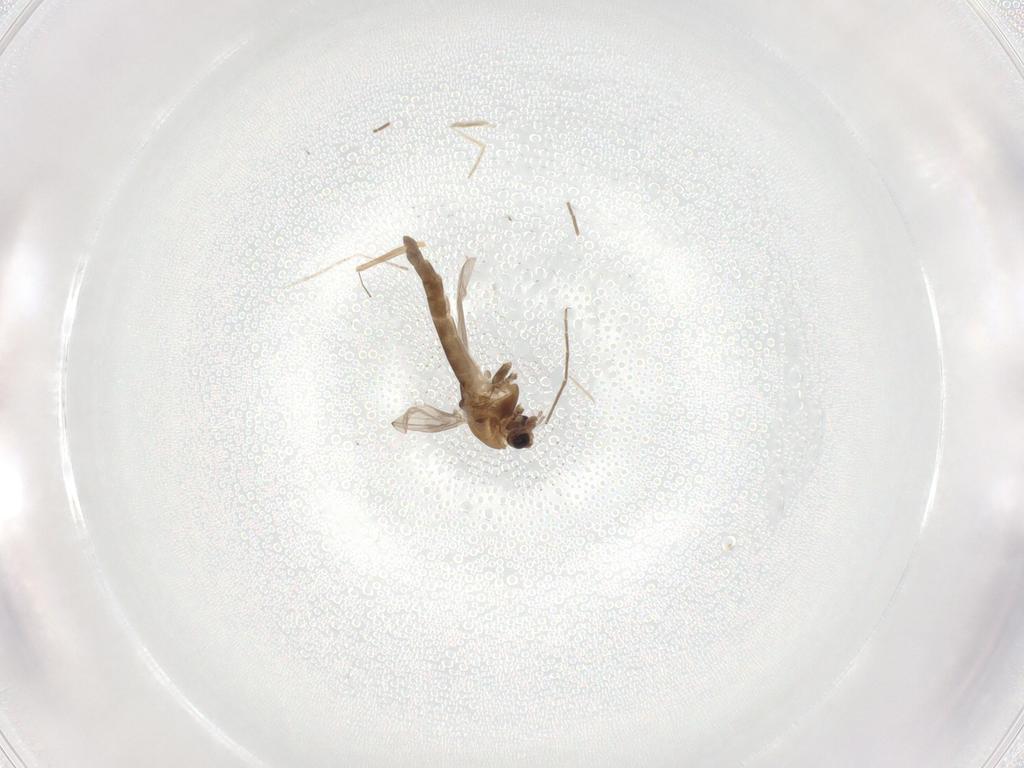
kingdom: Animalia
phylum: Arthropoda
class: Insecta
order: Diptera
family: Chironomidae
